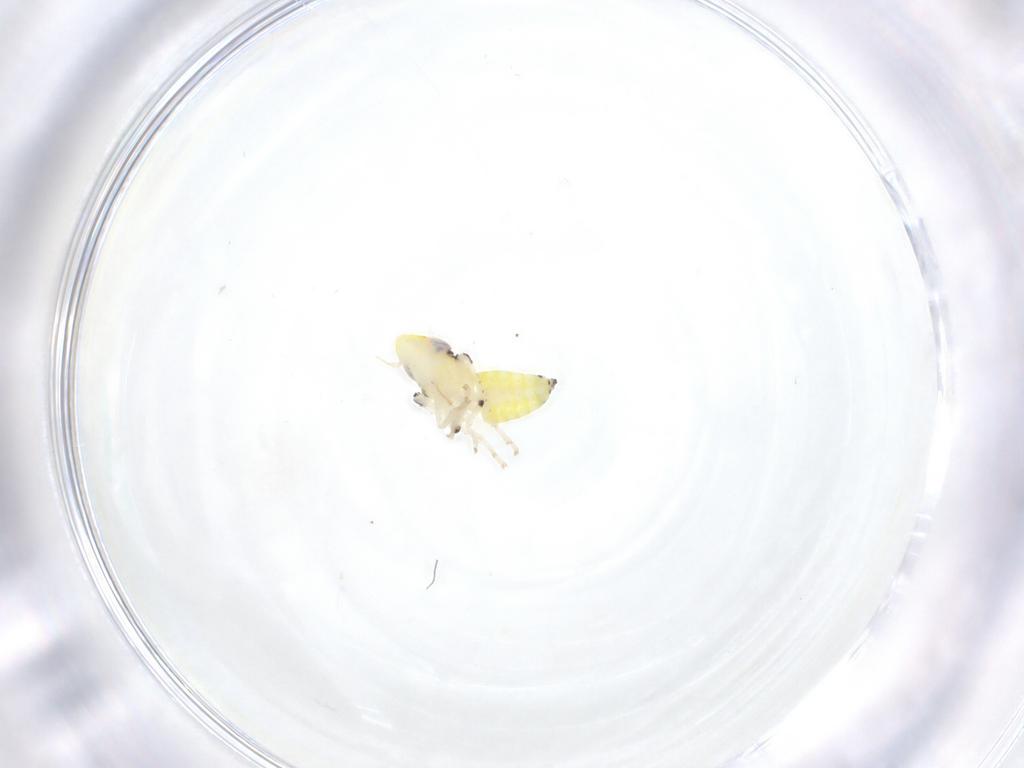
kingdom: Animalia
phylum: Arthropoda
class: Insecta
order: Hemiptera
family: Cicadellidae
